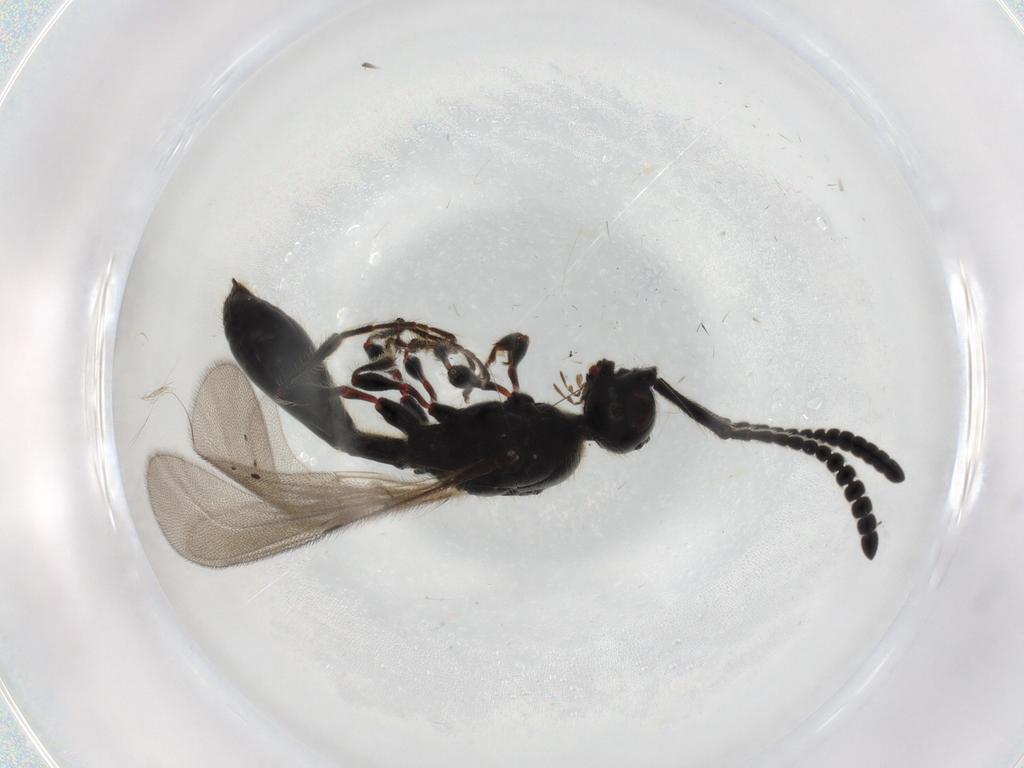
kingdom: Animalia
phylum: Arthropoda
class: Insecta
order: Hymenoptera
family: Diapriidae
